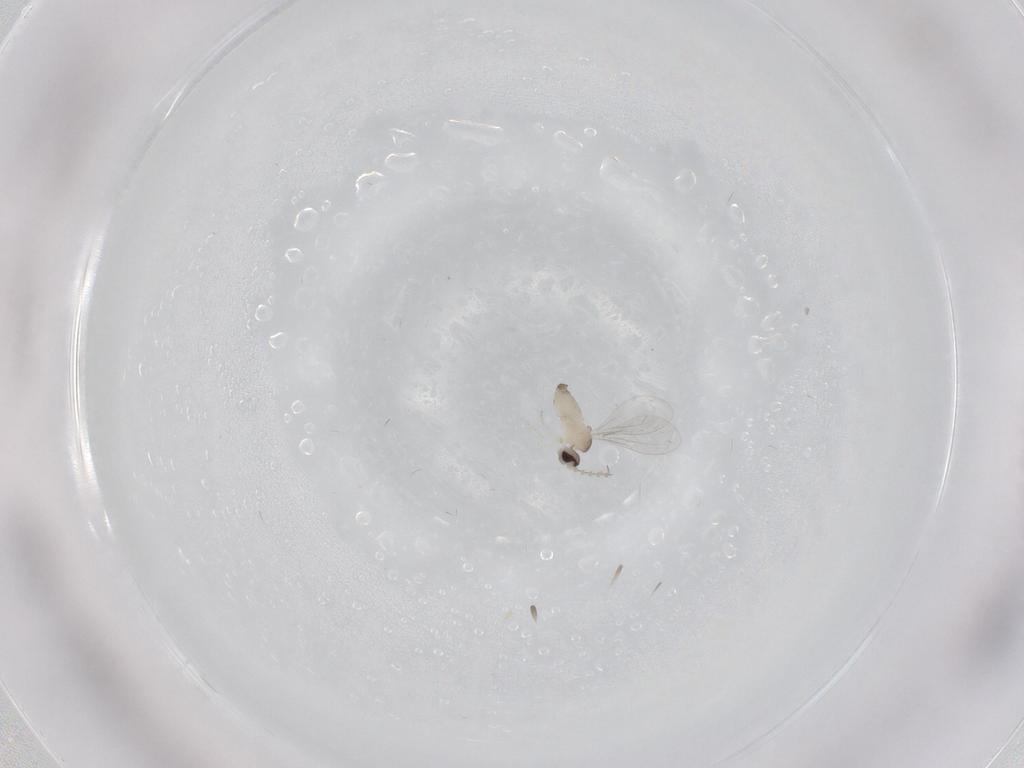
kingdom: Animalia
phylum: Arthropoda
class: Insecta
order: Diptera
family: Cecidomyiidae
